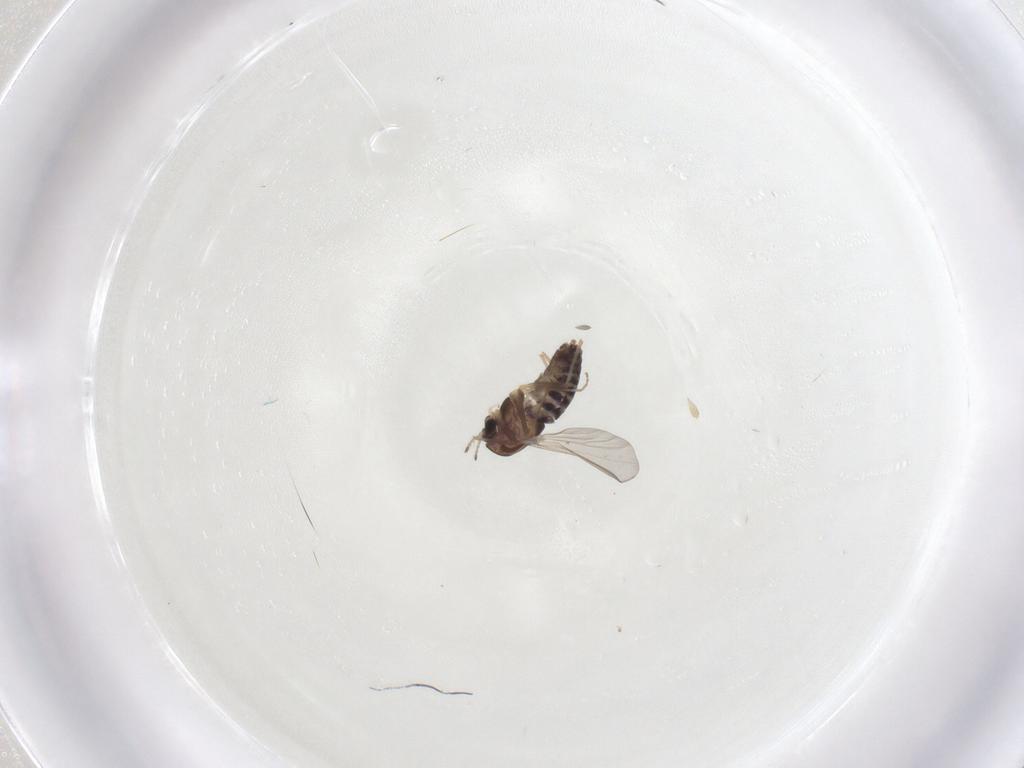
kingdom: Animalia
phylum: Arthropoda
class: Insecta
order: Diptera
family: Chironomidae
